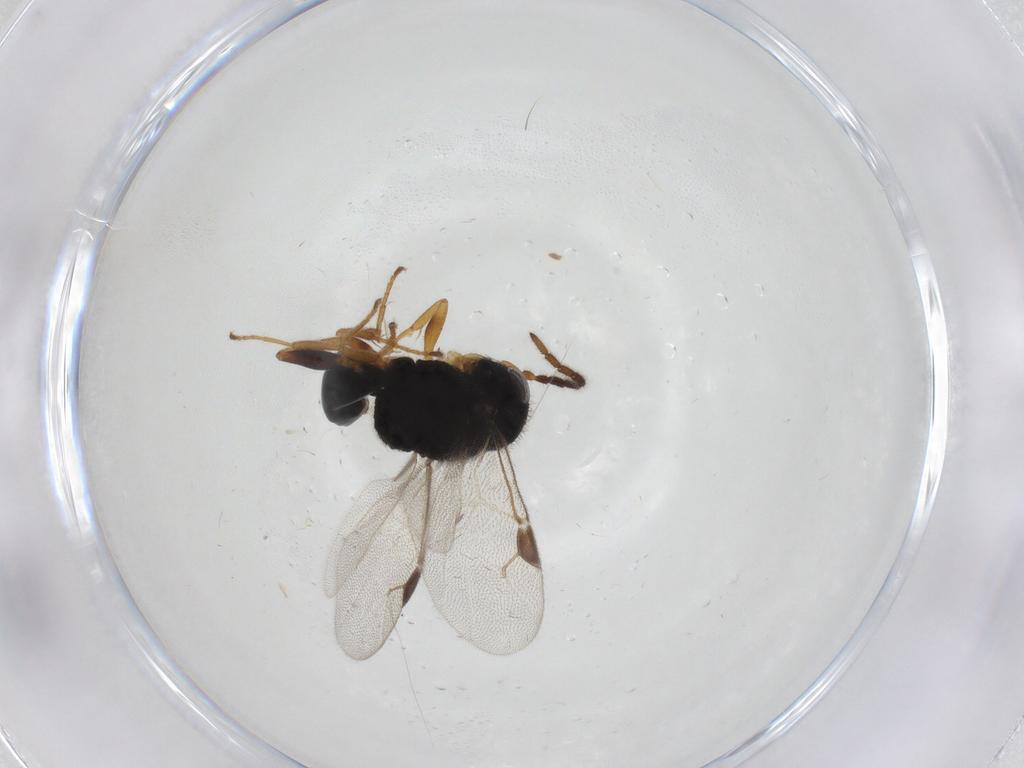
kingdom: Animalia
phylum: Arthropoda
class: Insecta
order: Hymenoptera
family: Dryinidae
